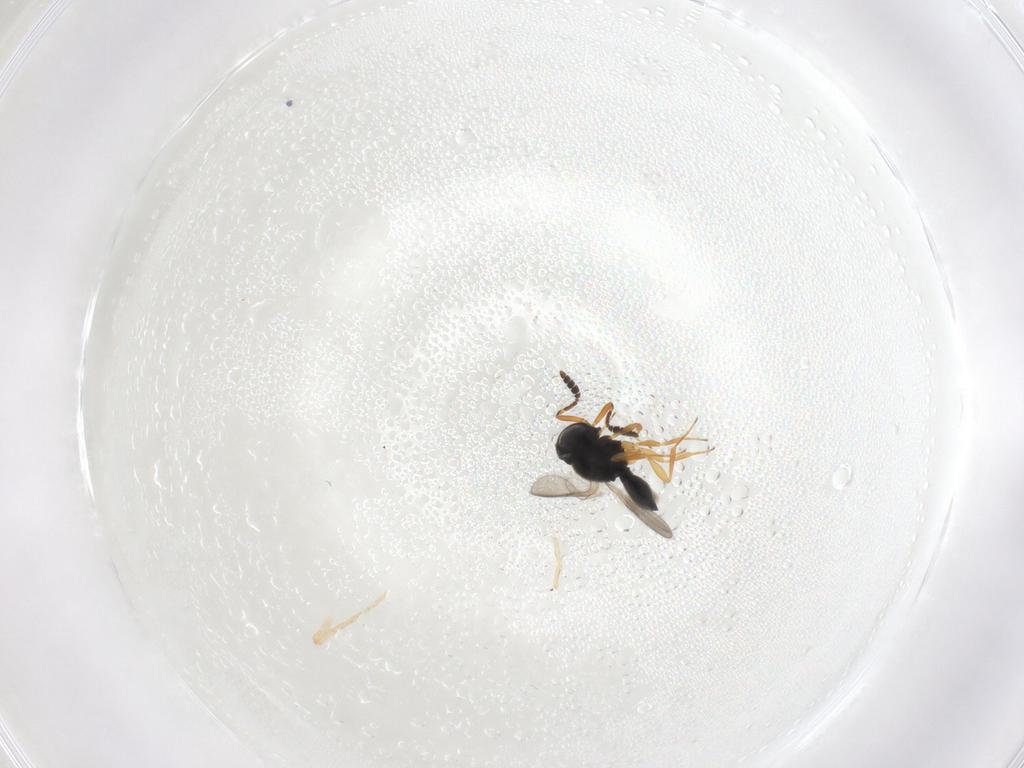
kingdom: Animalia
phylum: Arthropoda
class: Insecta
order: Hymenoptera
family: Scelionidae
